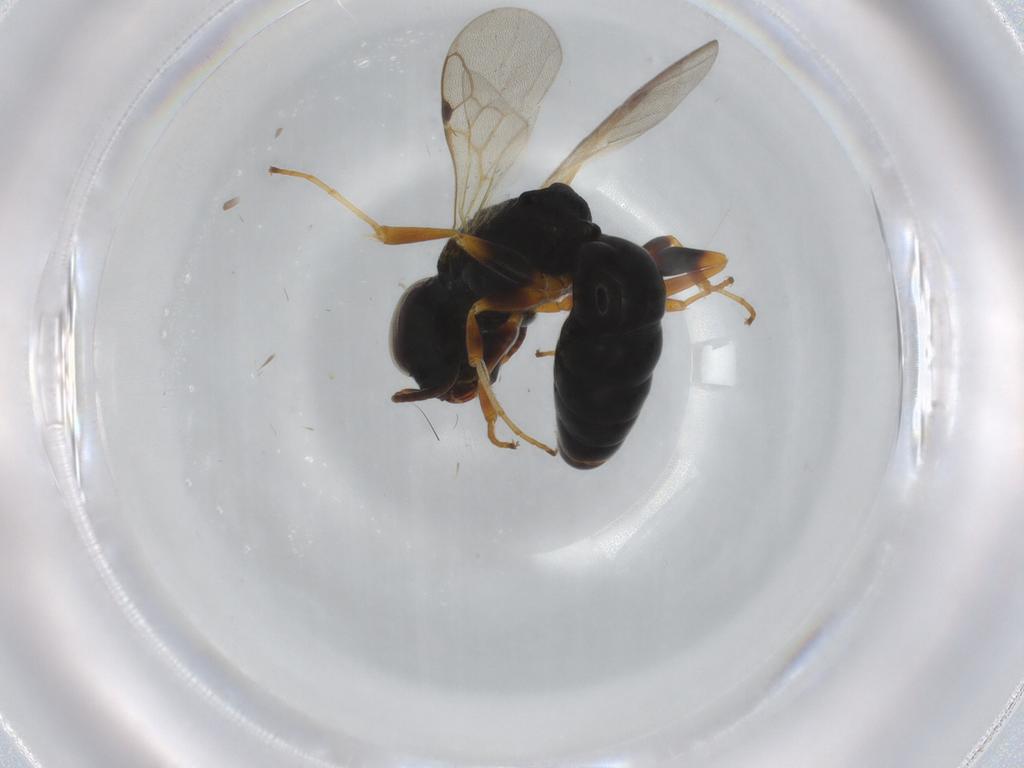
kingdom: Animalia
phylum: Arthropoda
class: Insecta
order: Hymenoptera
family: Crabronidae
